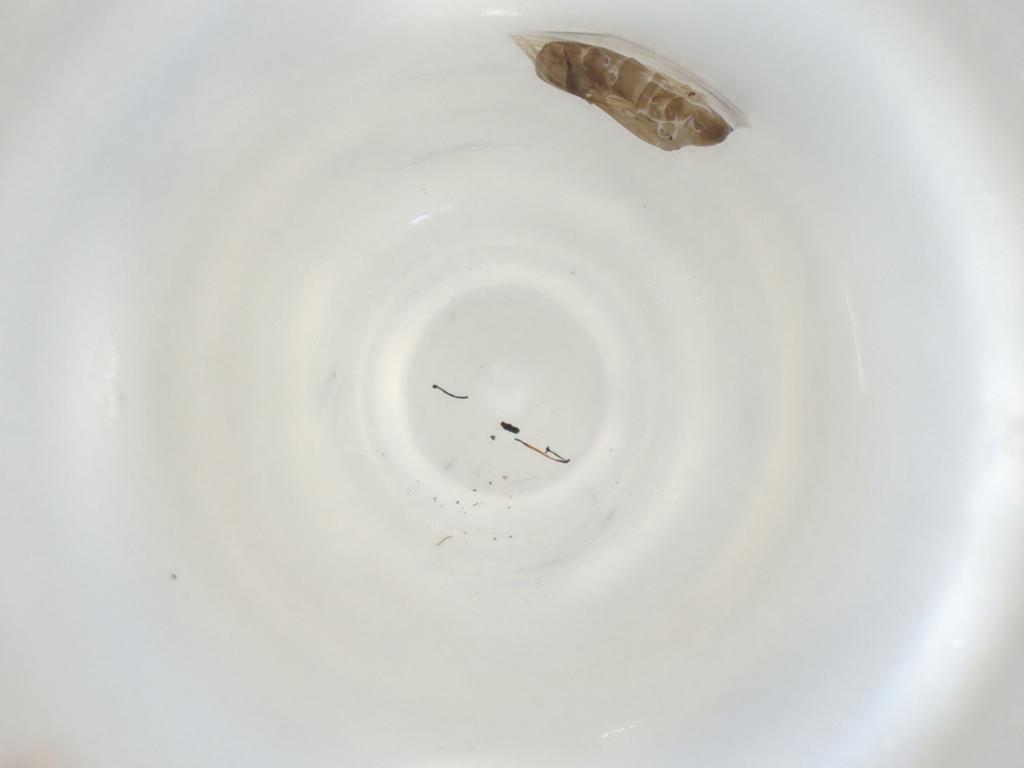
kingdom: Animalia
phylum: Arthropoda
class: Insecta
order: Diptera
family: Psychodidae
